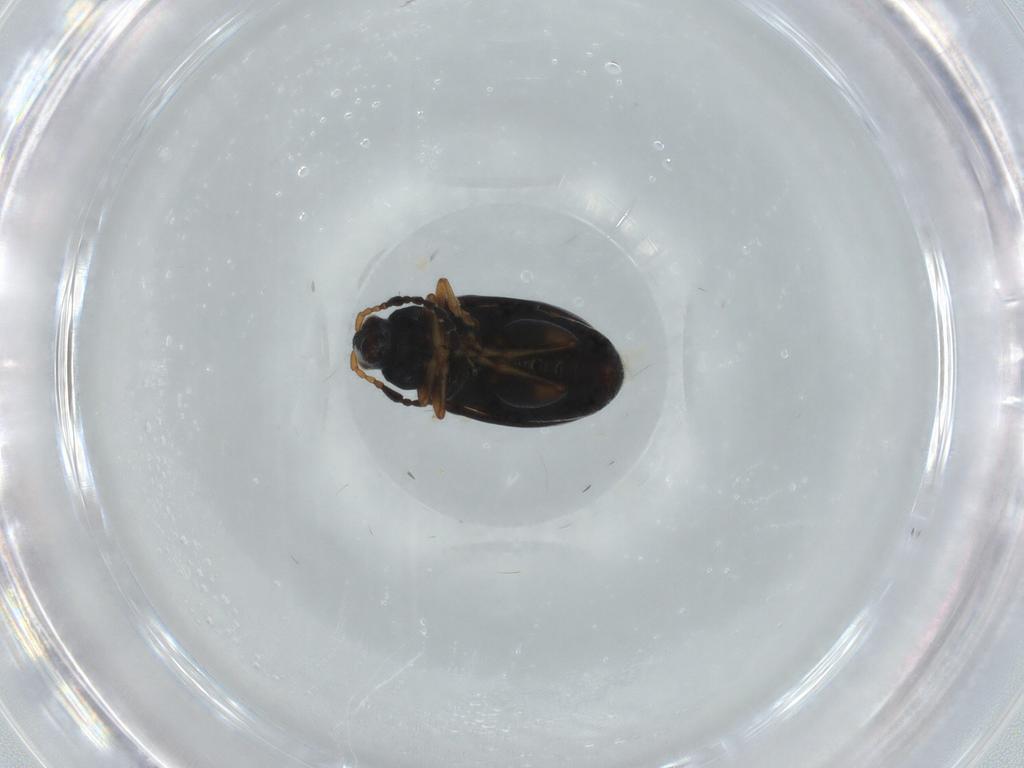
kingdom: Animalia
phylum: Arthropoda
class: Insecta
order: Coleoptera
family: Chrysomelidae
